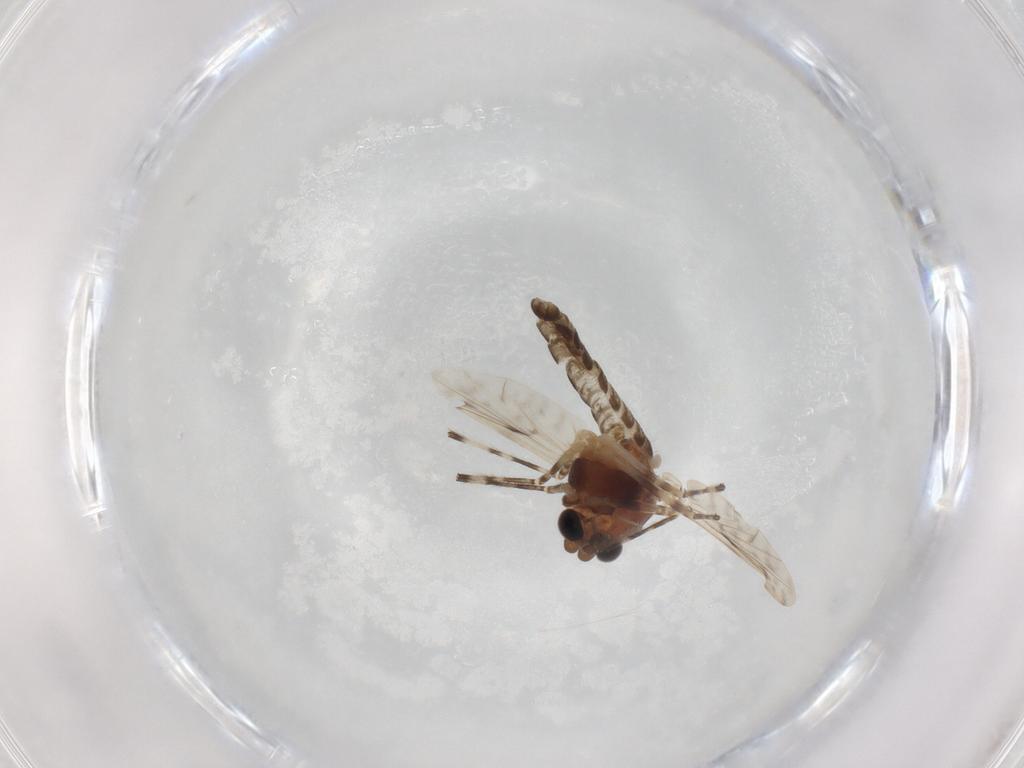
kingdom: Animalia
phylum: Arthropoda
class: Insecta
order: Diptera
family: Chironomidae
